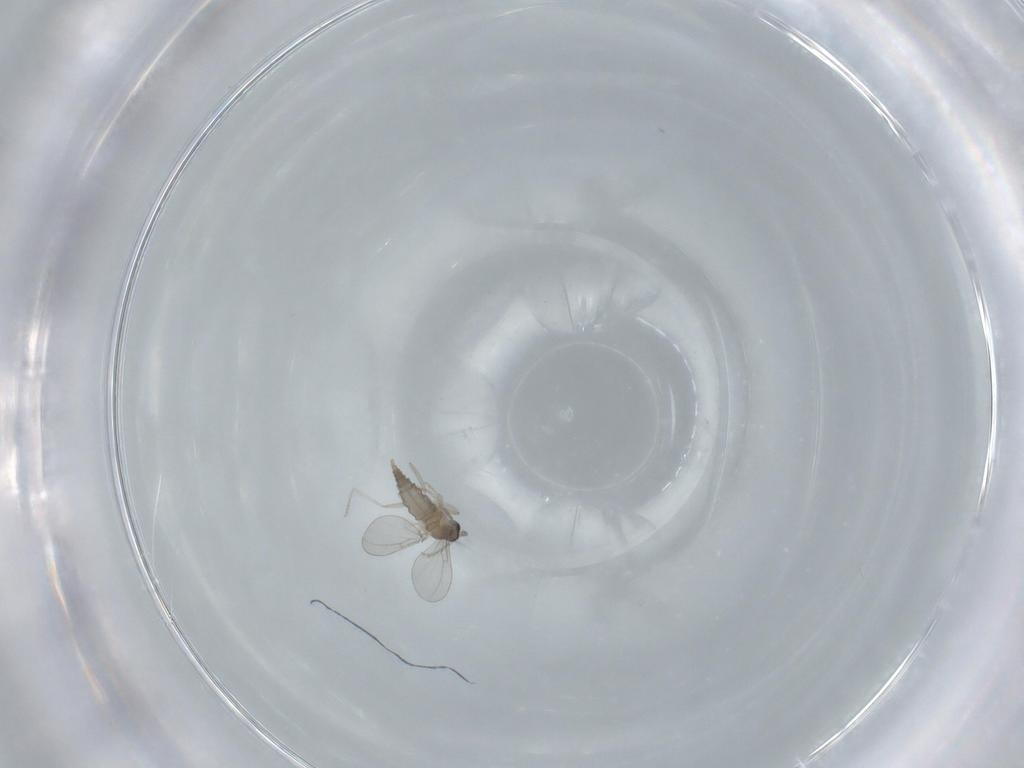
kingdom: Animalia
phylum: Arthropoda
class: Insecta
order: Diptera
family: Cecidomyiidae
